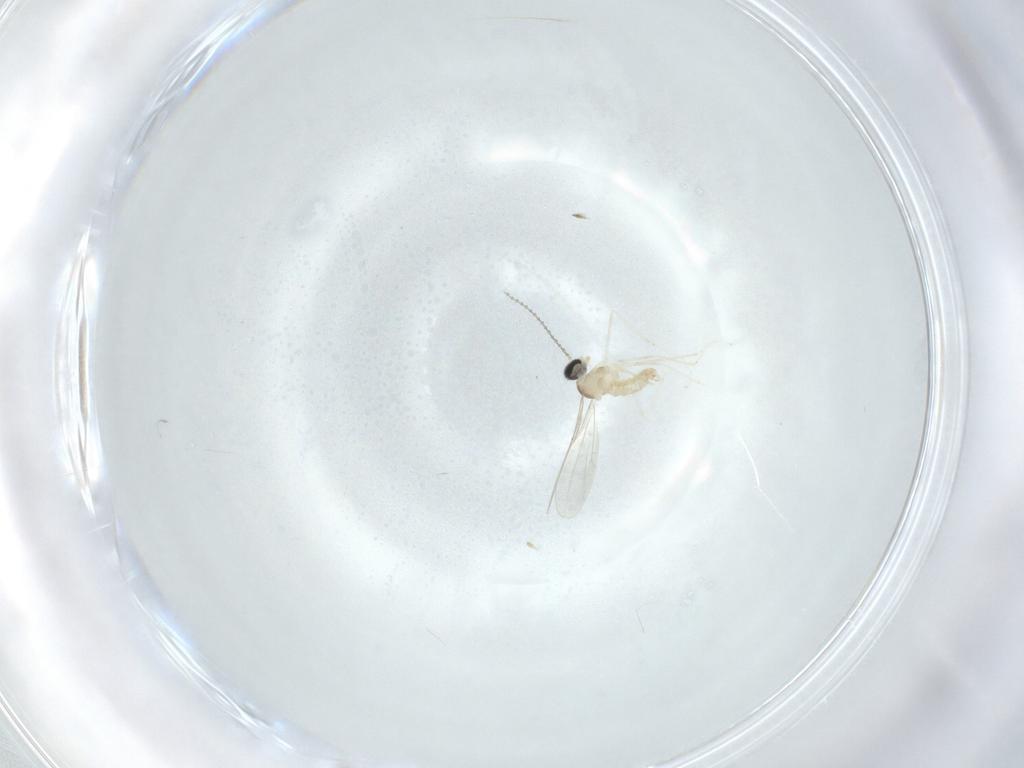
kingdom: Animalia
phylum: Arthropoda
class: Insecta
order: Diptera
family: Cecidomyiidae
